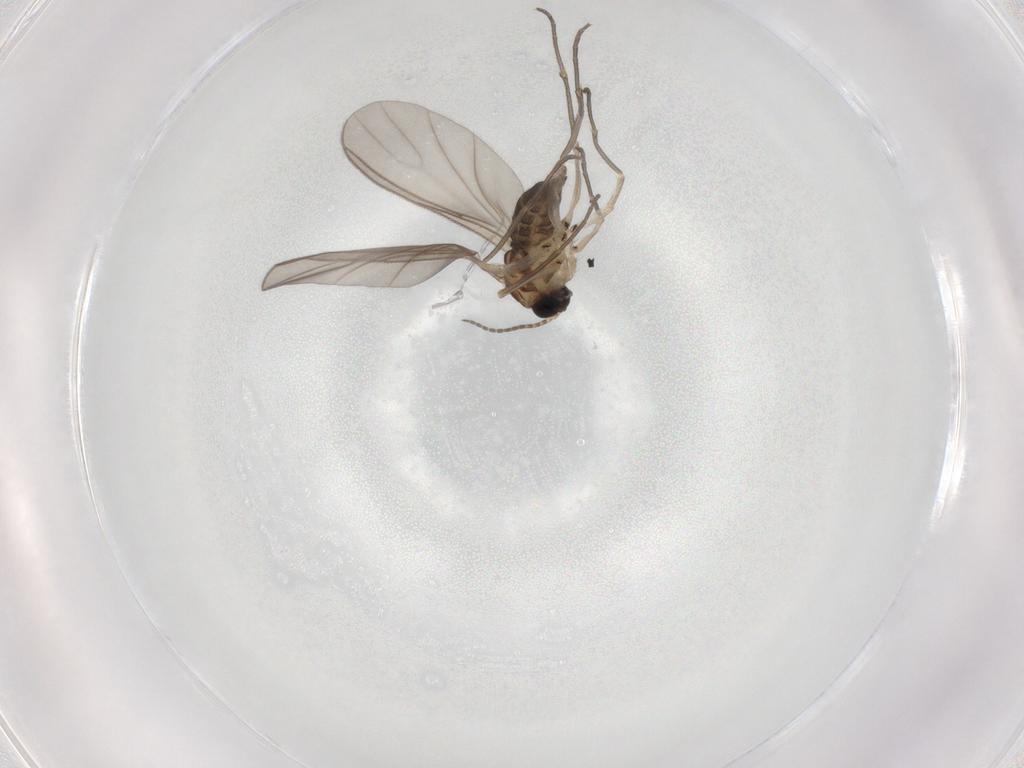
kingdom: Animalia
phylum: Arthropoda
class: Insecta
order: Diptera
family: Sciaridae
